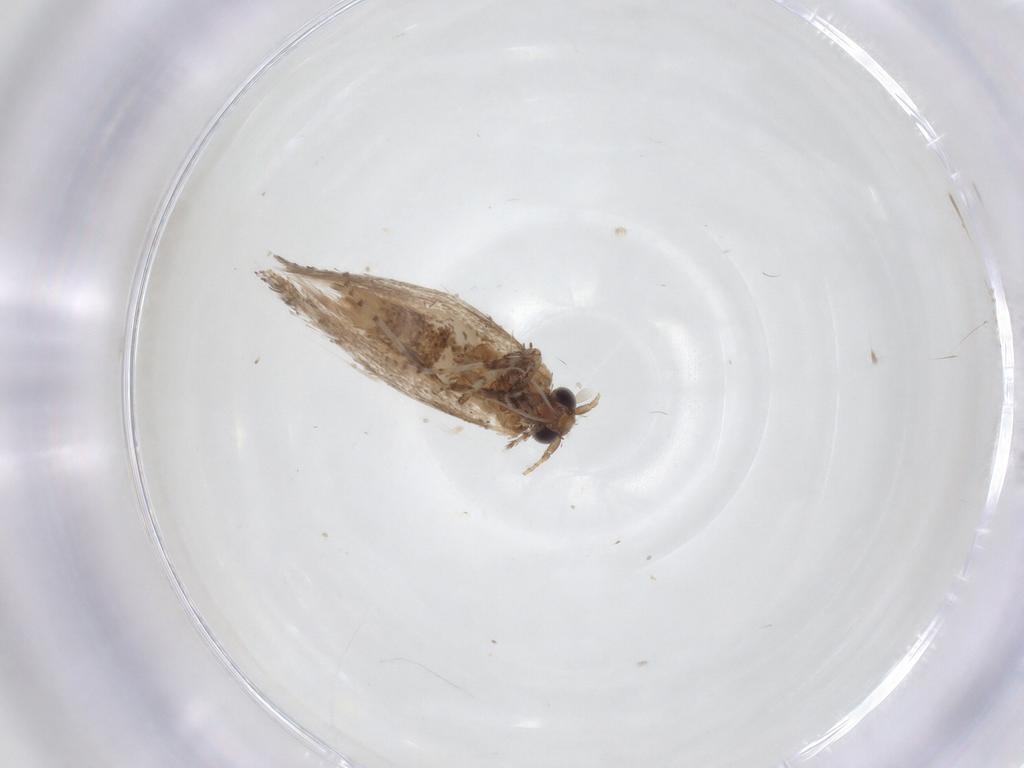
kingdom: Animalia
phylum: Arthropoda
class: Insecta
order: Lepidoptera
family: Gracillariidae
